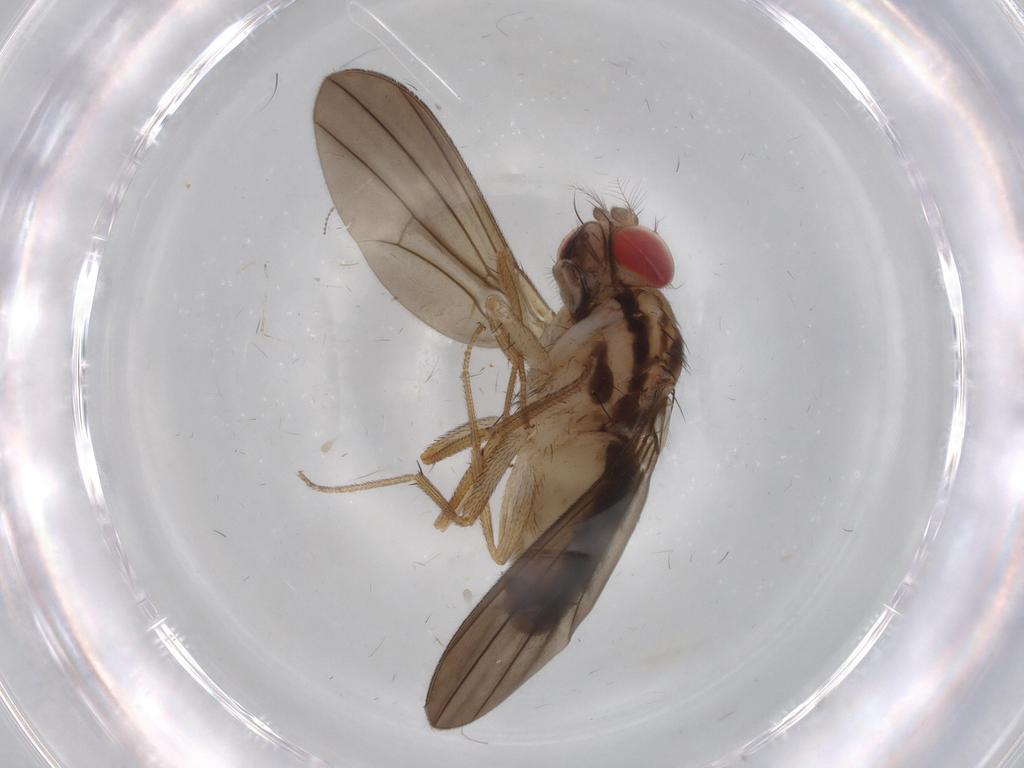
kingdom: Animalia
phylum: Arthropoda
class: Insecta
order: Diptera
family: Drosophilidae
